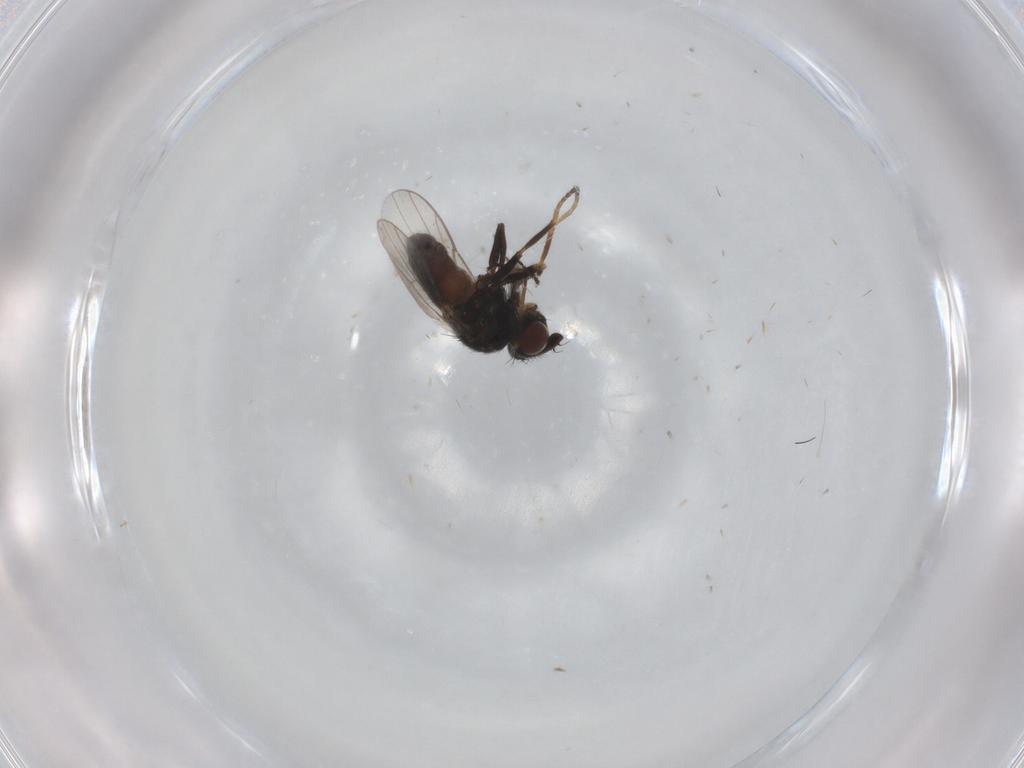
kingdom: Animalia
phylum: Arthropoda
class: Insecta
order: Diptera
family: Chloropidae
